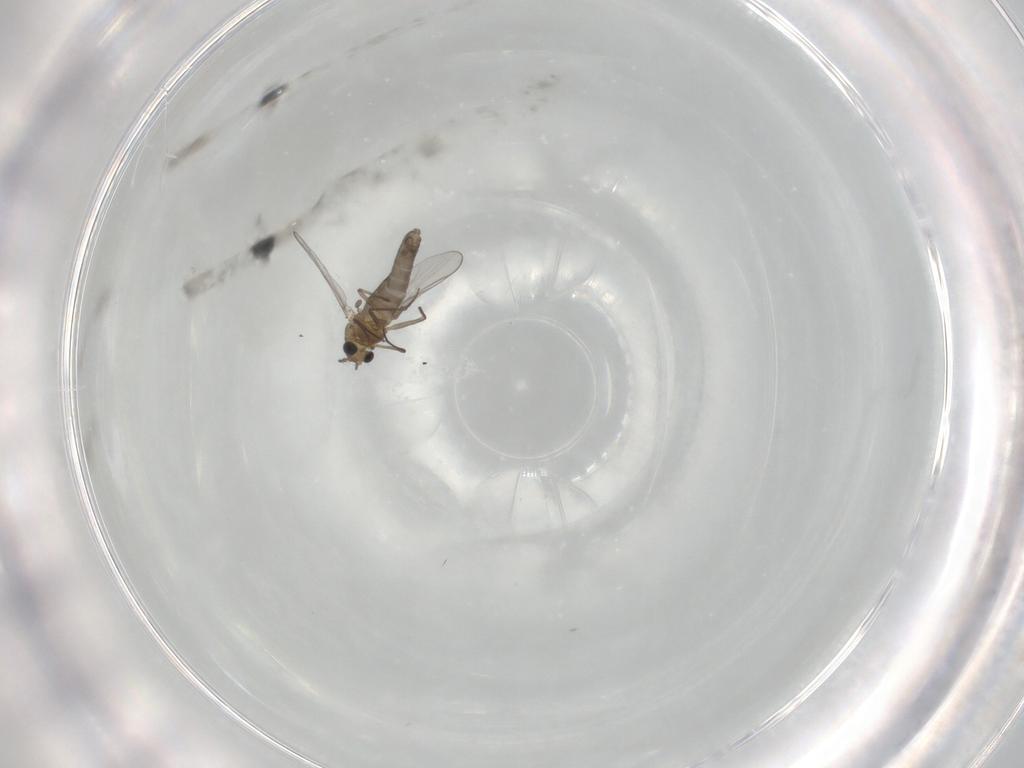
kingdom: Animalia
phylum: Arthropoda
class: Insecta
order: Diptera
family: Chironomidae
